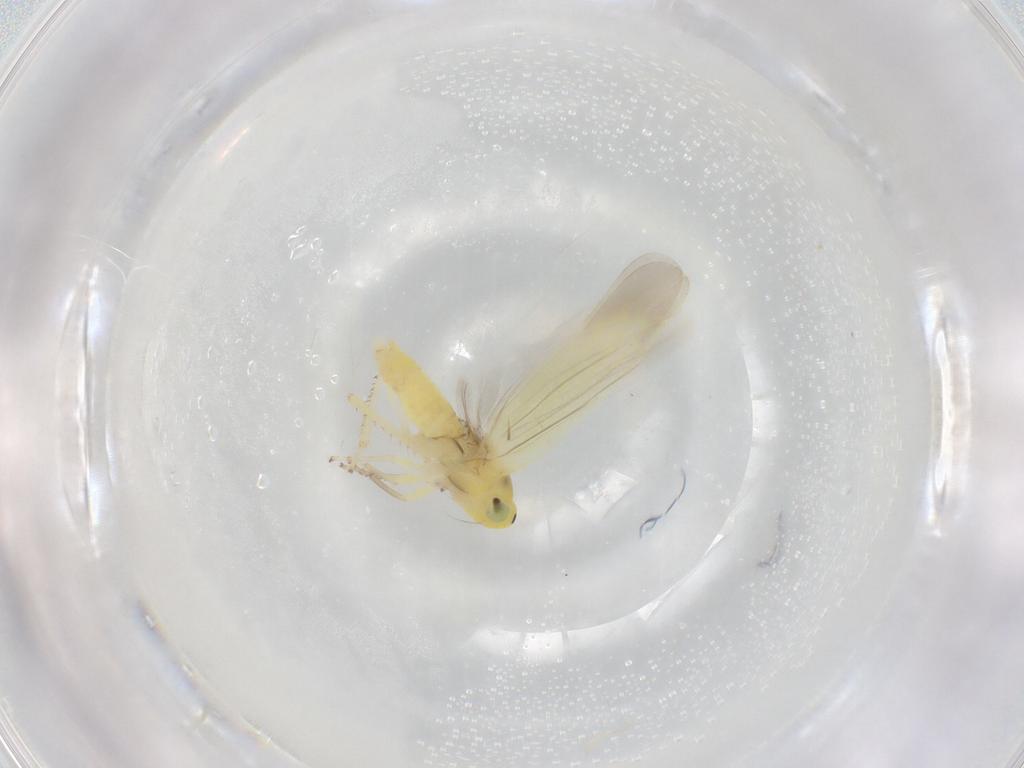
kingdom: Animalia
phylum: Arthropoda
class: Insecta
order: Hemiptera
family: Cicadellidae
